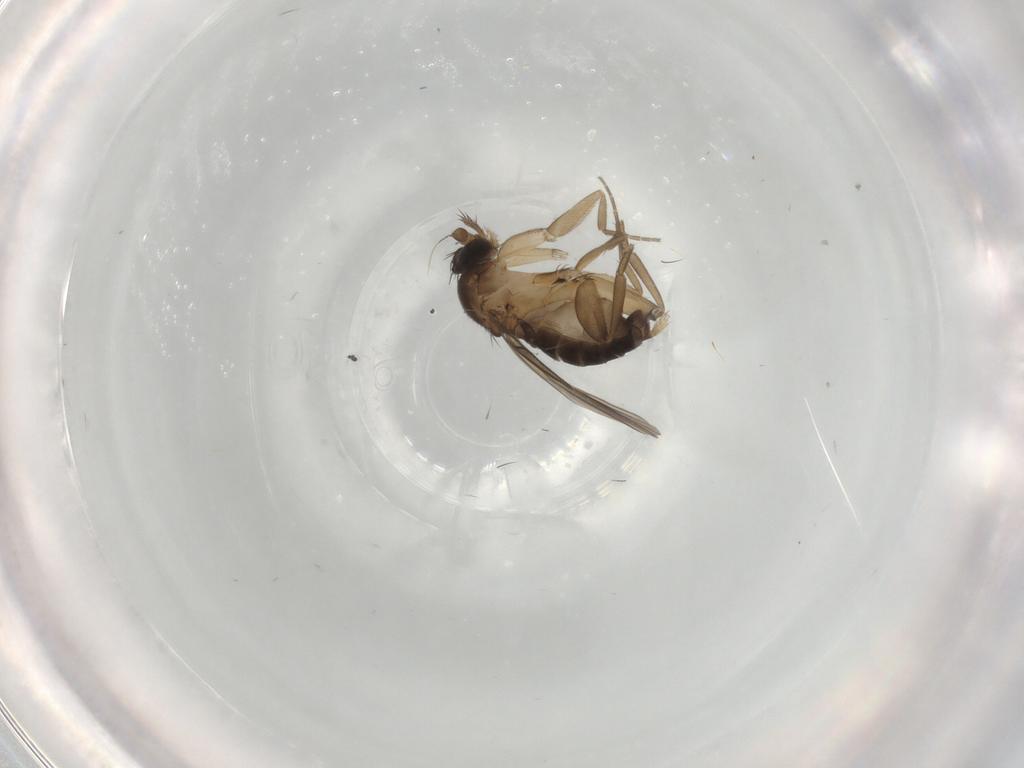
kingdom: Animalia
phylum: Arthropoda
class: Insecta
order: Diptera
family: Phoridae
